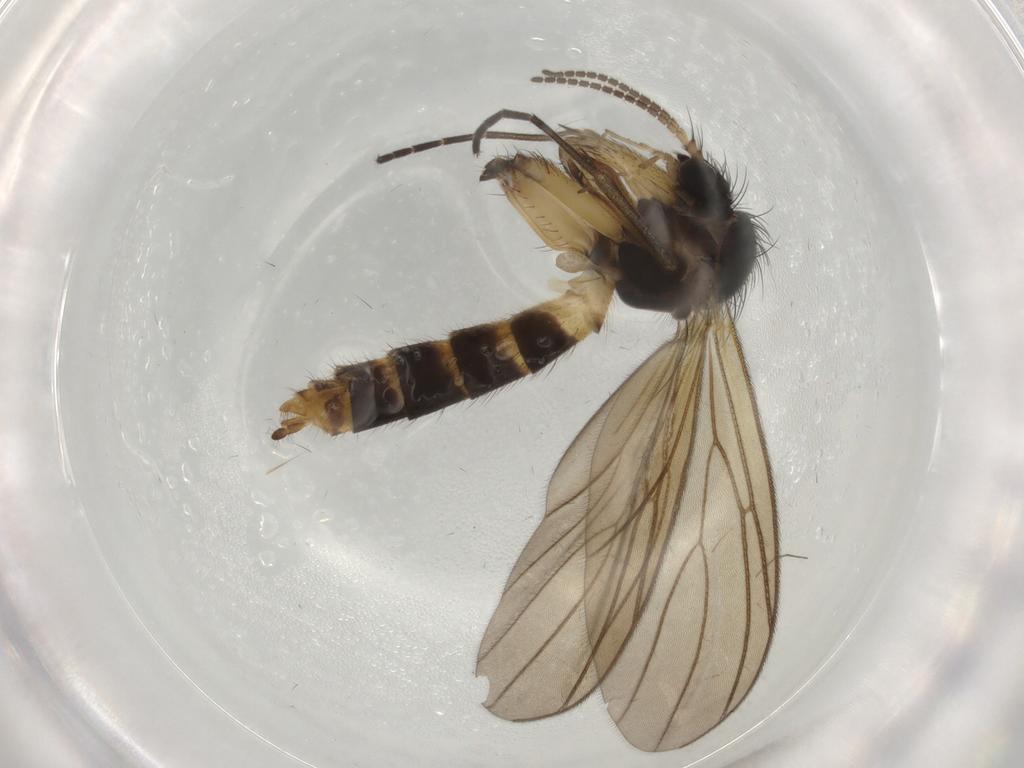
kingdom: Animalia
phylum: Arthropoda
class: Insecta
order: Diptera
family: Chironomidae
